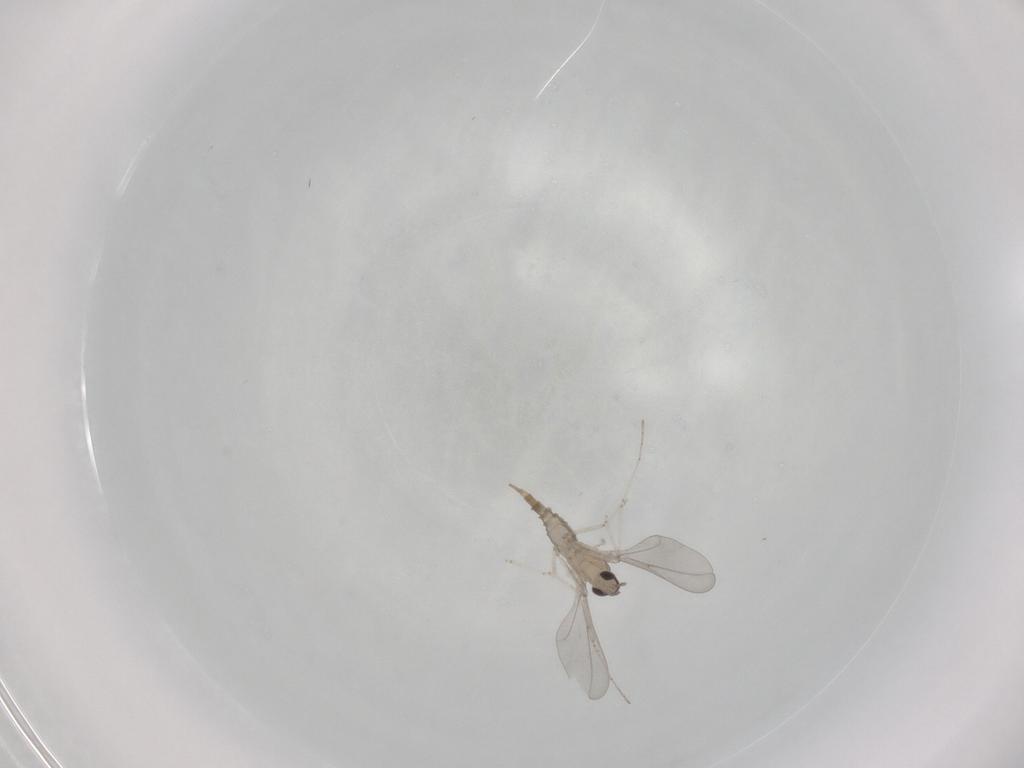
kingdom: Animalia
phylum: Arthropoda
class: Insecta
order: Diptera
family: Cecidomyiidae
